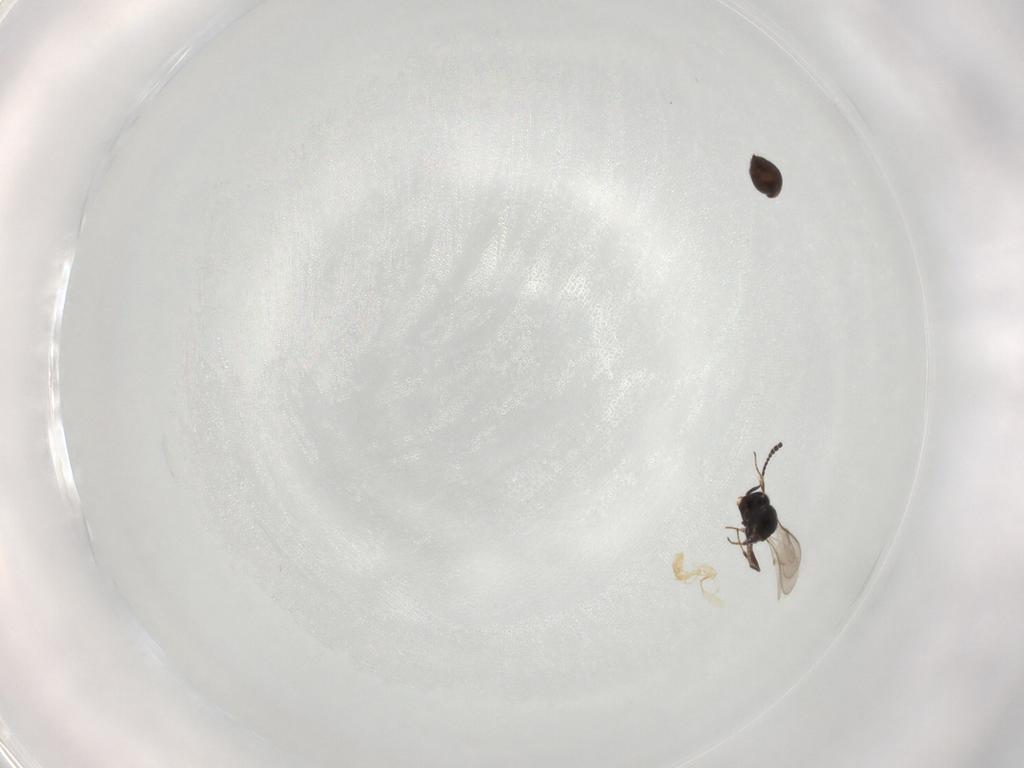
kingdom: Animalia
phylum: Arthropoda
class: Insecta
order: Hymenoptera
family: Scelionidae
